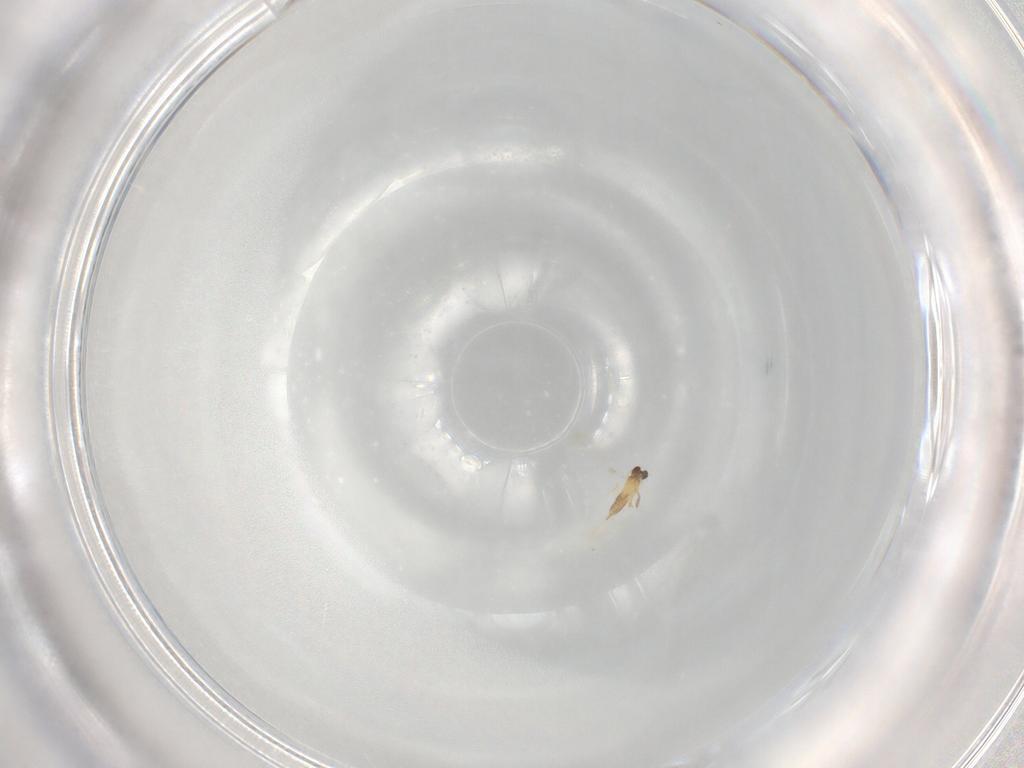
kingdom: Animalia
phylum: Arthropoda
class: Insecta
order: Hymenoptera
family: Mymaridae
